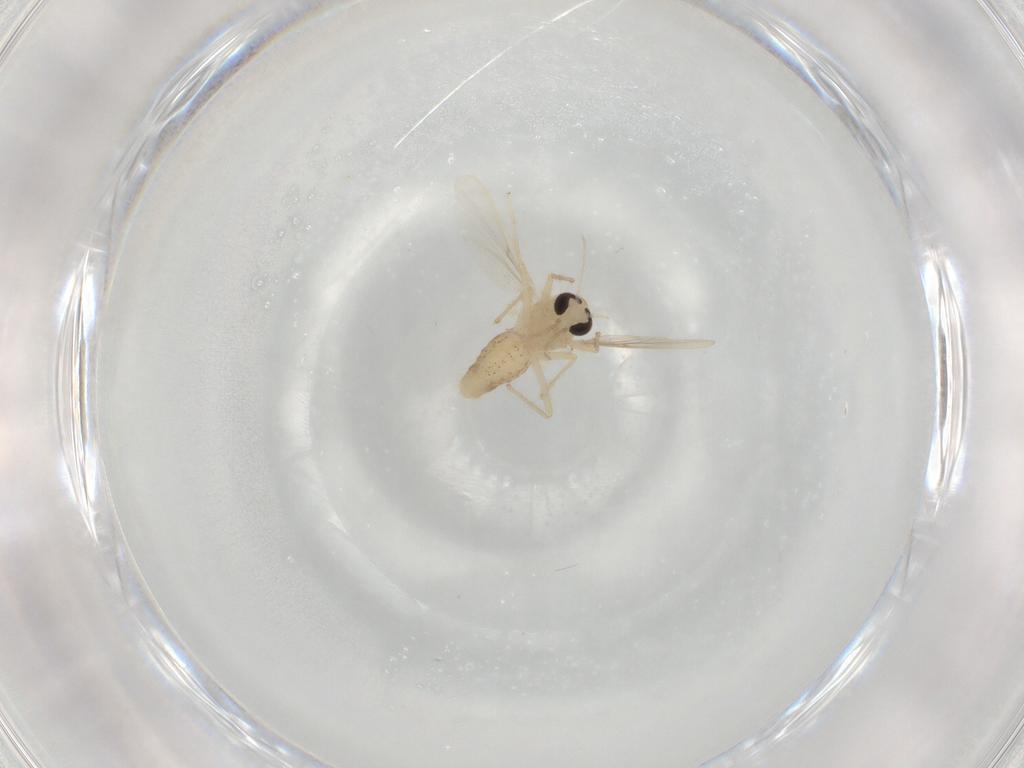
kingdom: Animalia
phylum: Arthropoda
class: Insecta
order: Diptera
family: Chironomidae
